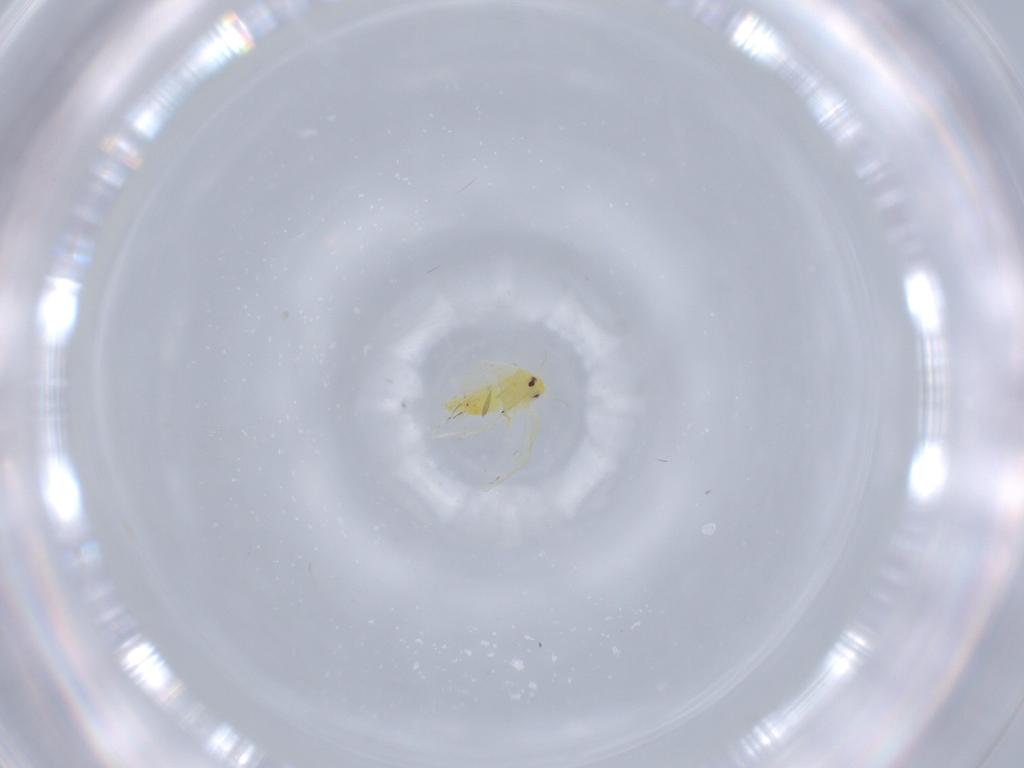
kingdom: Animalia
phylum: Arthropoda
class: Insecta
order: Hemiptera
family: Aleyrodidae
